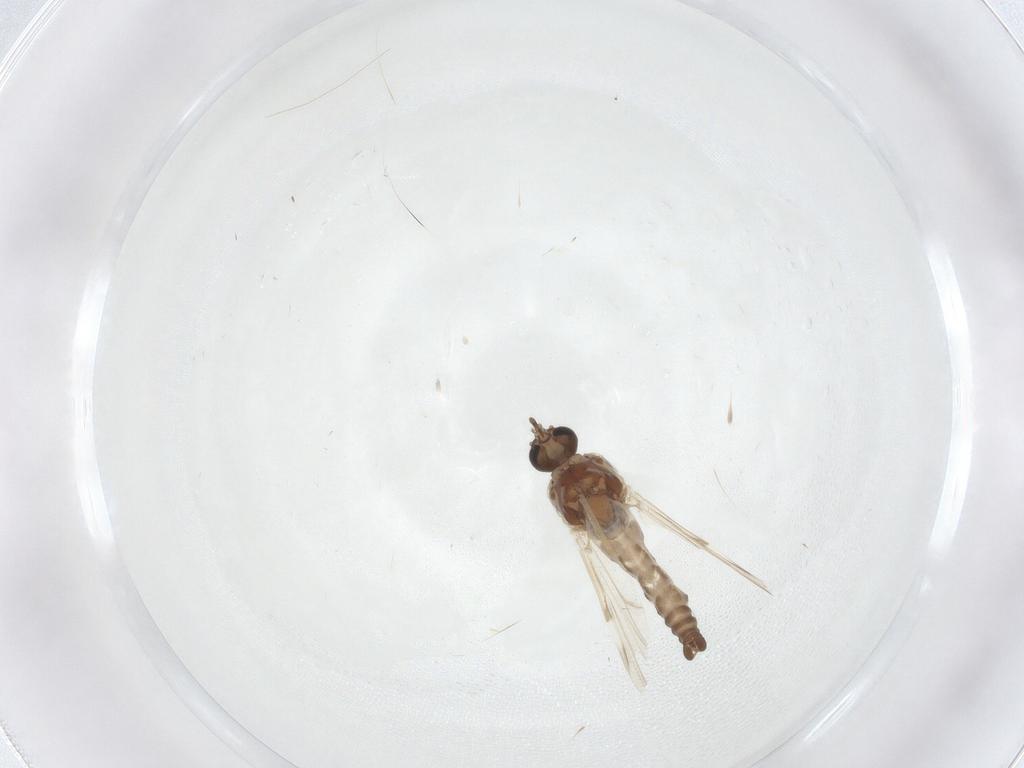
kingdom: Animalia
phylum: Arthropoda
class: Insecta
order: Diptera
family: Ceratopogonidae
